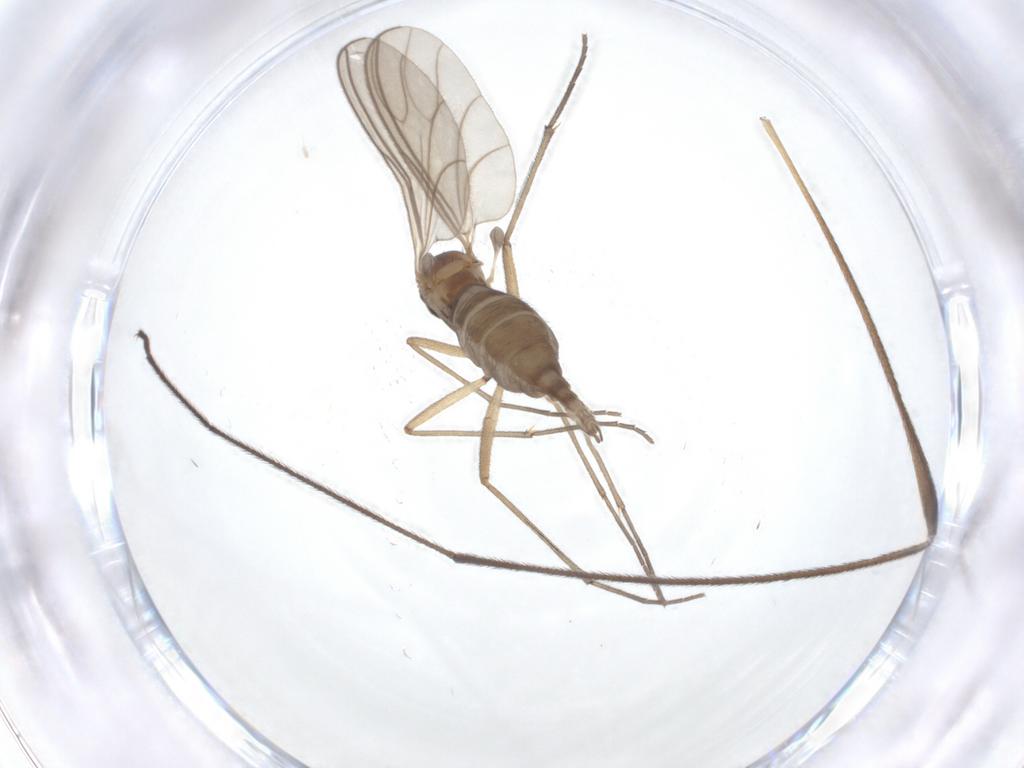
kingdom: Animalia
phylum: Arthropoda
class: Insecta
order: Diptera
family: Sciaridae
